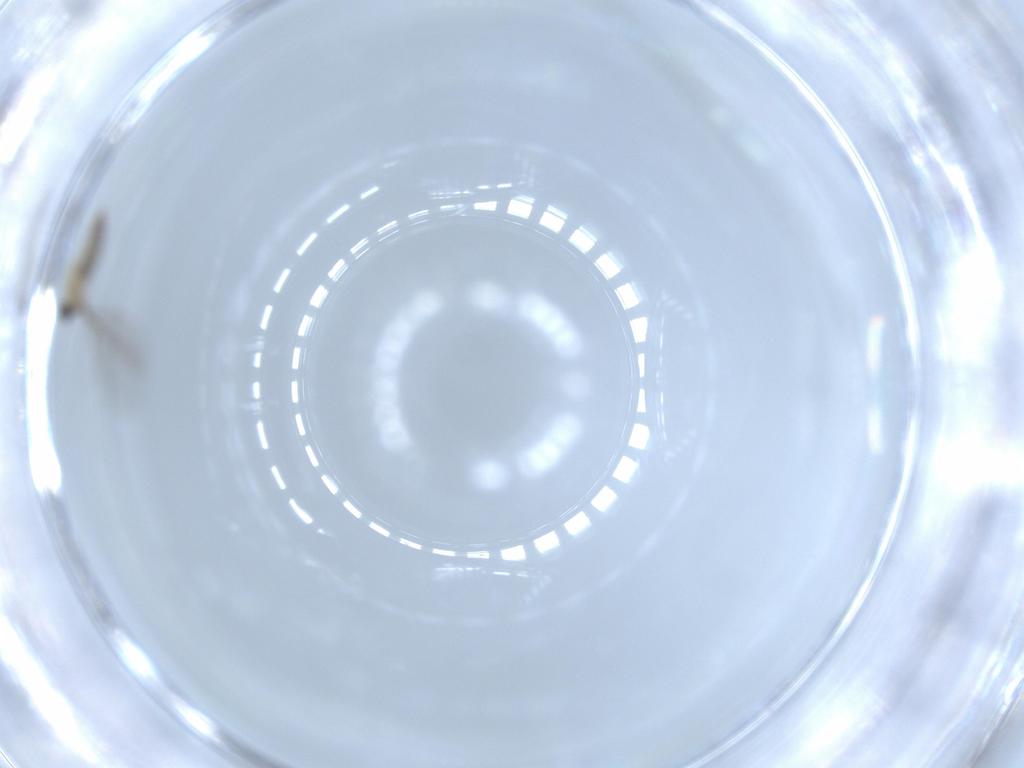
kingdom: Animalia
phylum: Arthropoda
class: Insecta
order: Diptera
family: Cecidomyiidae
